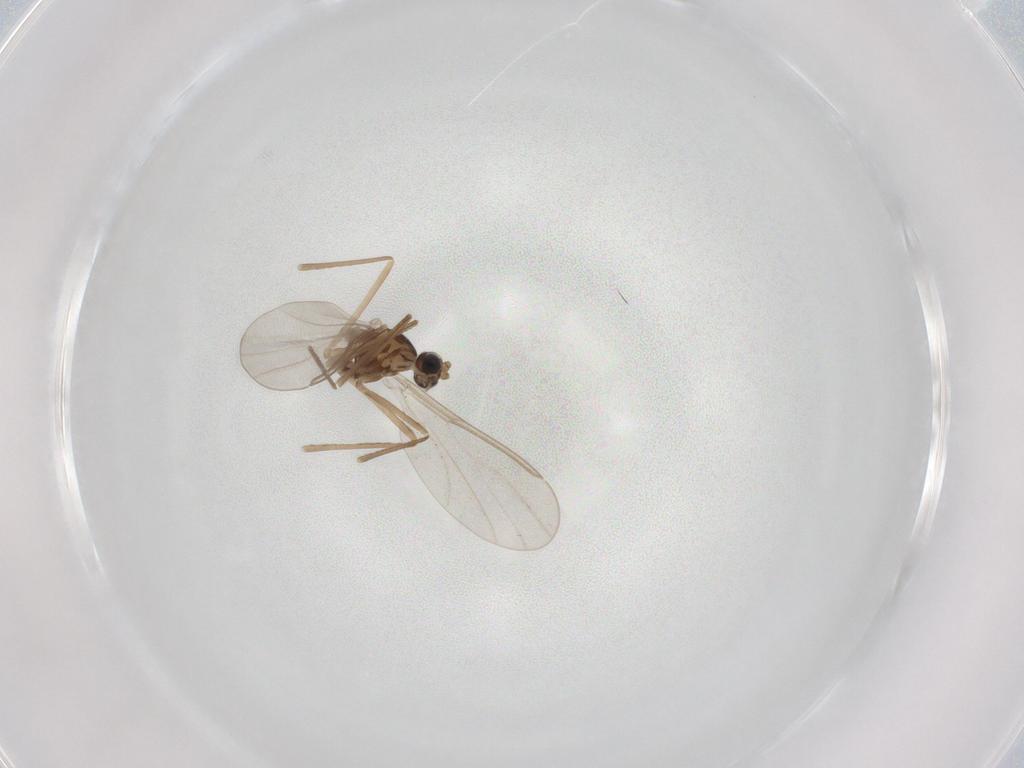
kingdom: Animalia
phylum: Arthropoda
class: Insecta
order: Diptera
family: Cecidomyiidae
